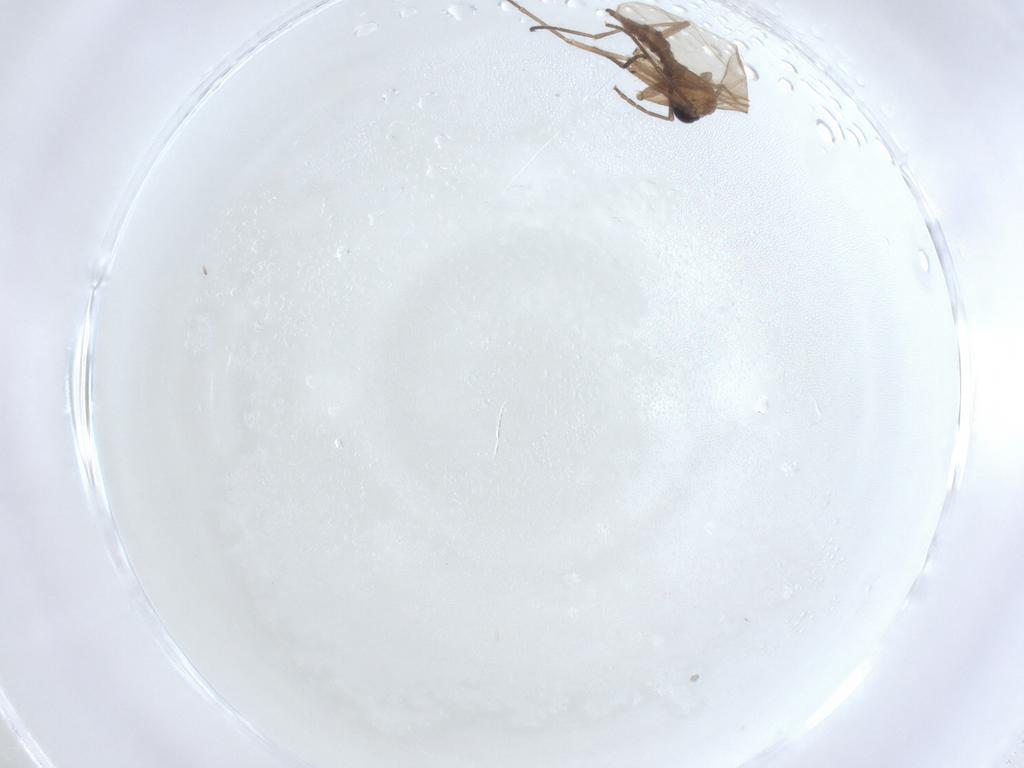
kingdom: Animalia
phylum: Arthropoda
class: Insecta
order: Diptera
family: Sciaridae
